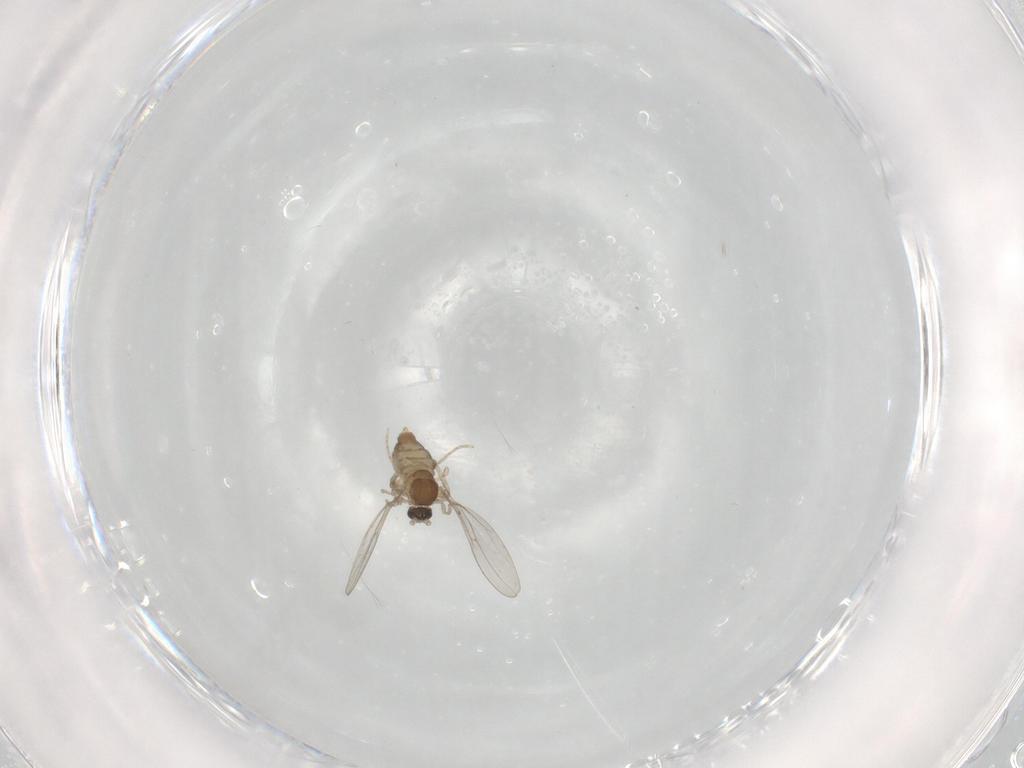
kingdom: Animalia
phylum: Arthropoda
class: Insecta
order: Diptera
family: Cecidomyiidae
